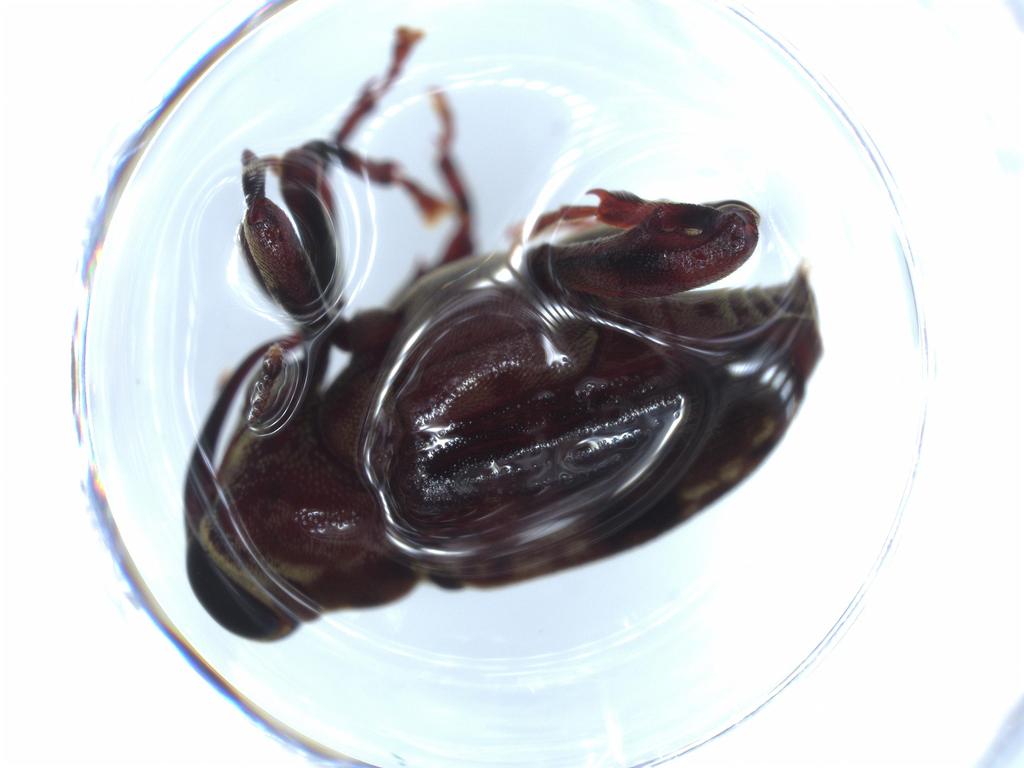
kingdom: Animalia
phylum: Arthropoda
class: Insecta
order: Coleoptera
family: Curculionidae
